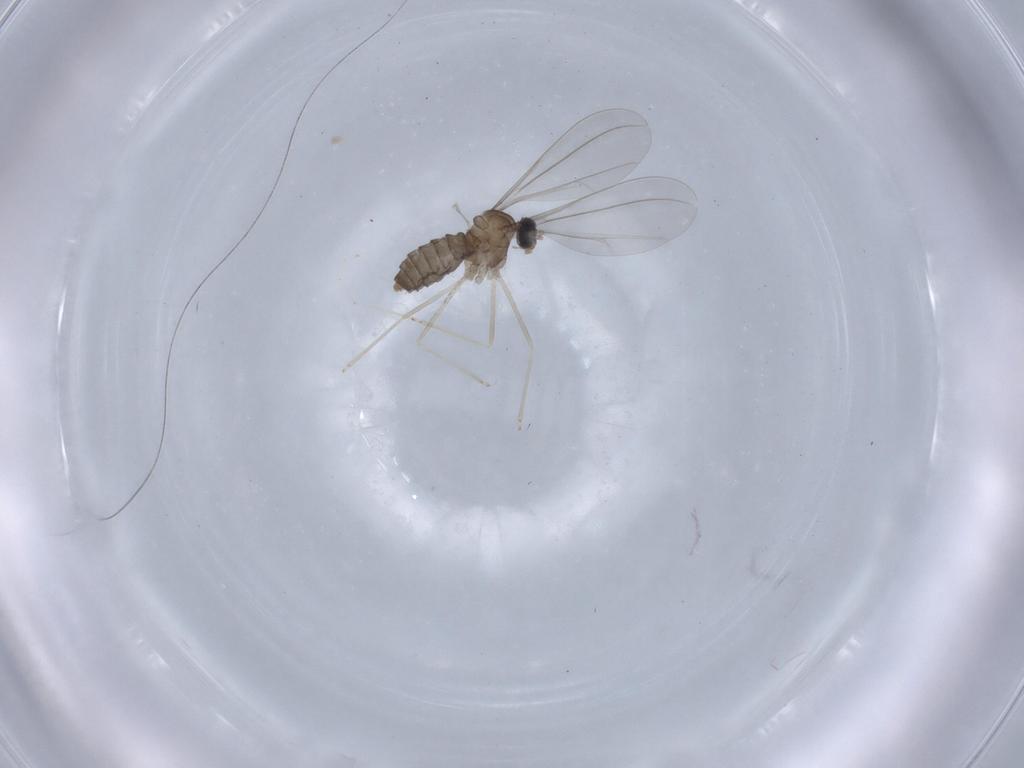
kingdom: Animalia
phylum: Arthropoda
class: Insecta
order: Diptera
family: Cecidomyiidae
